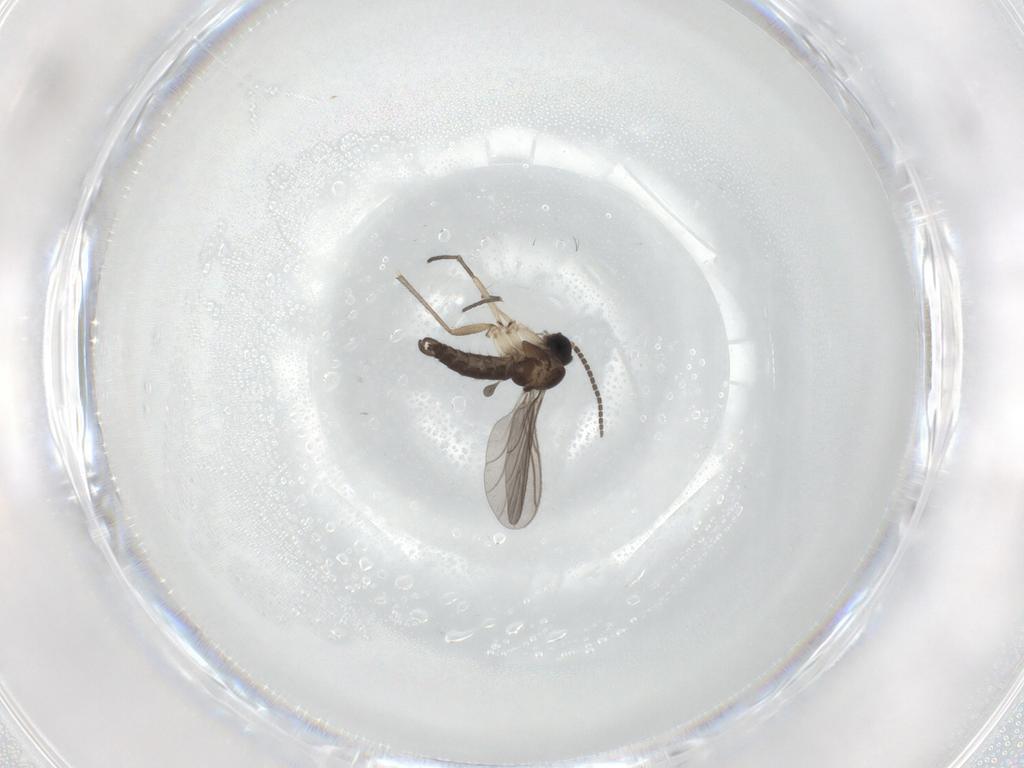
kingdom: Animalia
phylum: Arthropoda
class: Insecta
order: Diptera
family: Sciaridae
